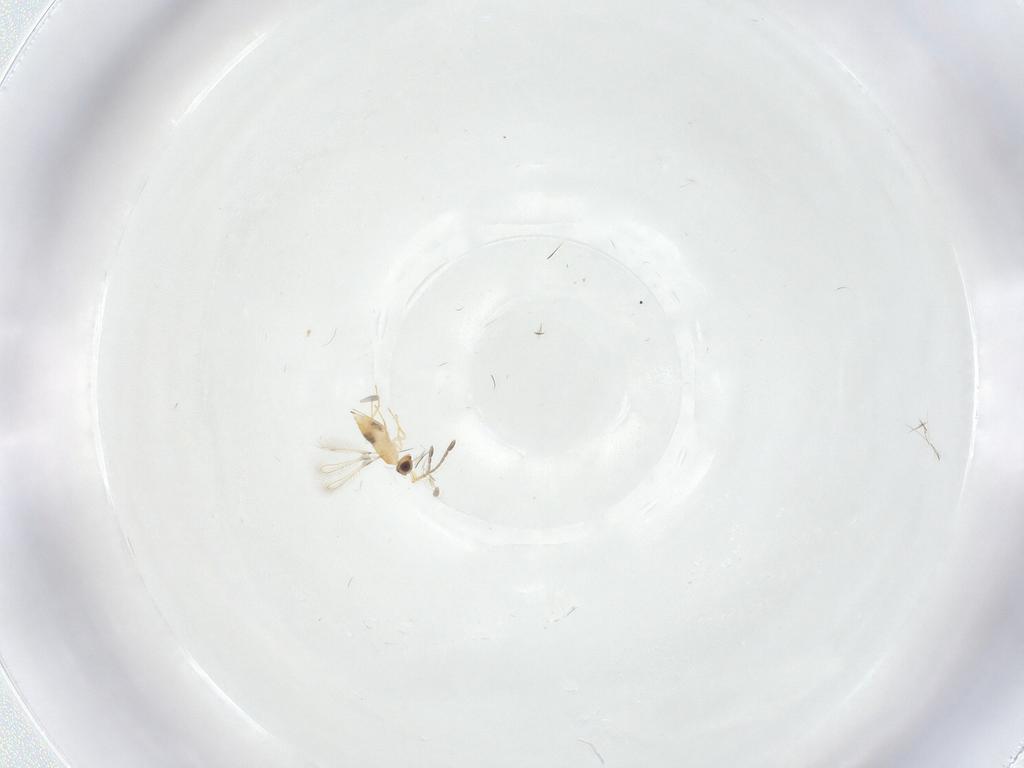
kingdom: Animalia
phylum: Arthropoda
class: Insecta
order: Hymenoptera
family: Mymaridae
